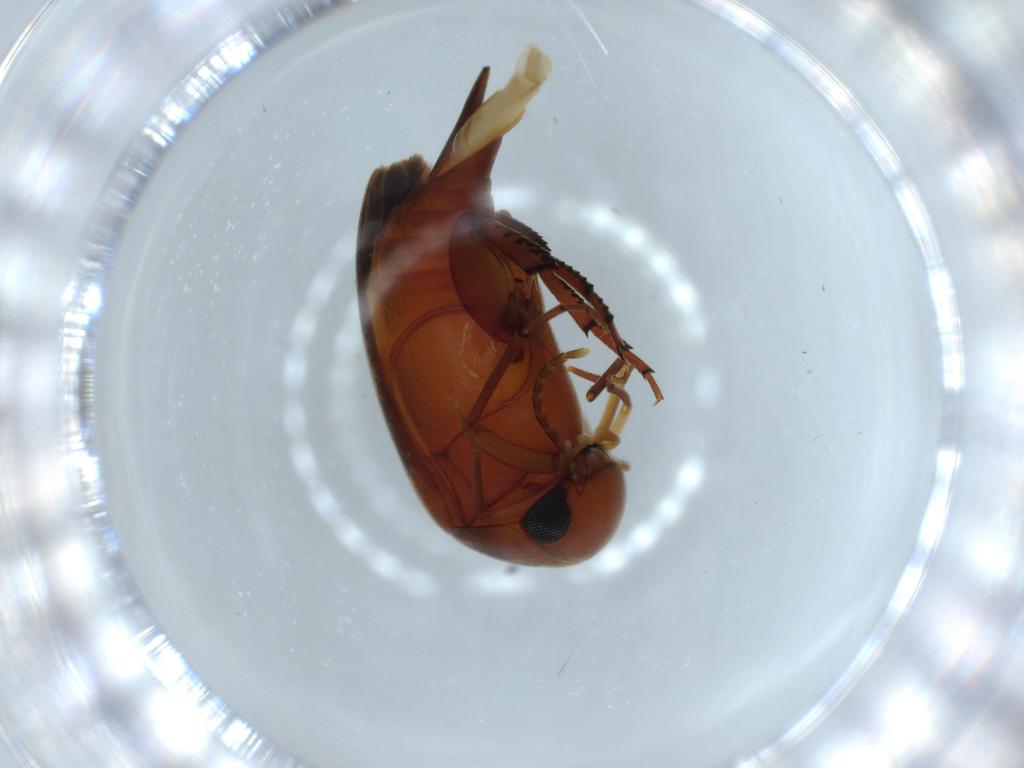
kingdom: Animalia
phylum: Arthropoda
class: Insecta
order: Coleoptera
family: Mordellidae
